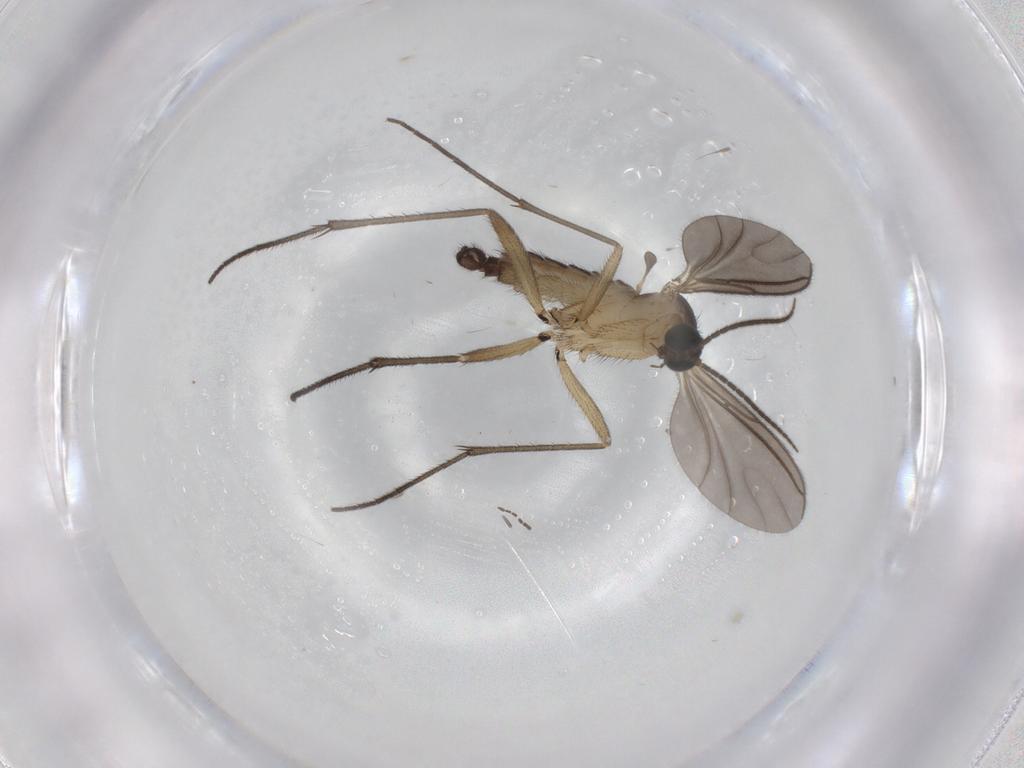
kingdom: Animalia
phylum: Arthropoda
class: Insecta
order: Diptera
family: Sciaridae
